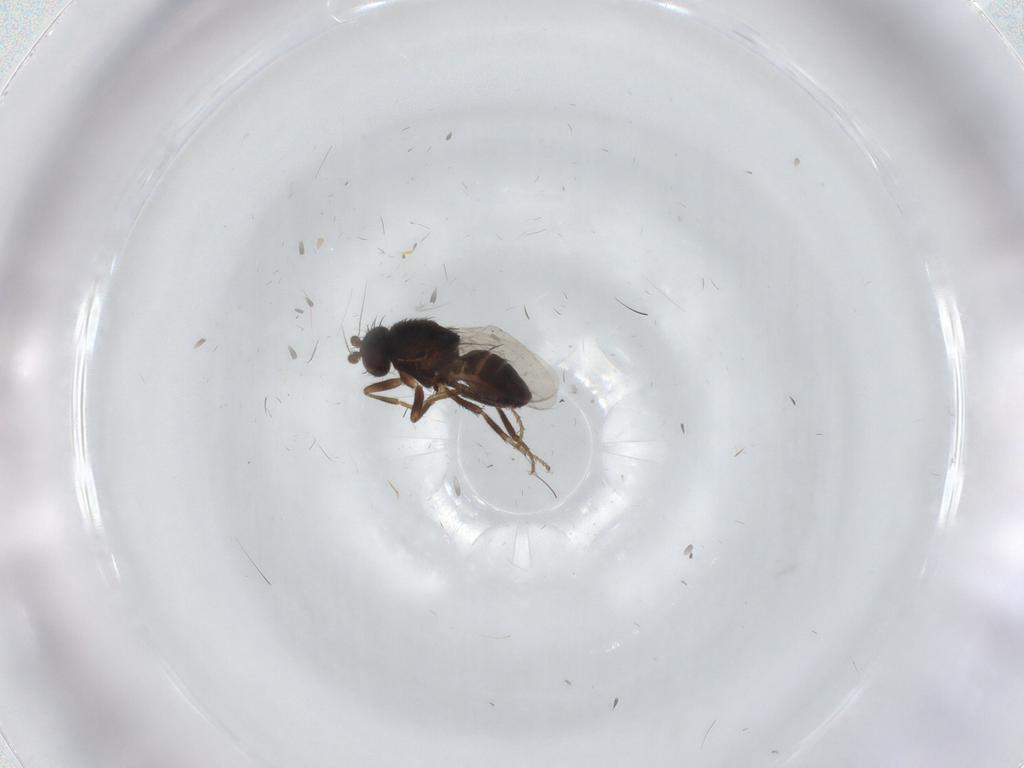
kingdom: Animalia
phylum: Arthropoda
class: Insecta
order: Diptera
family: Sphaeroceridae
